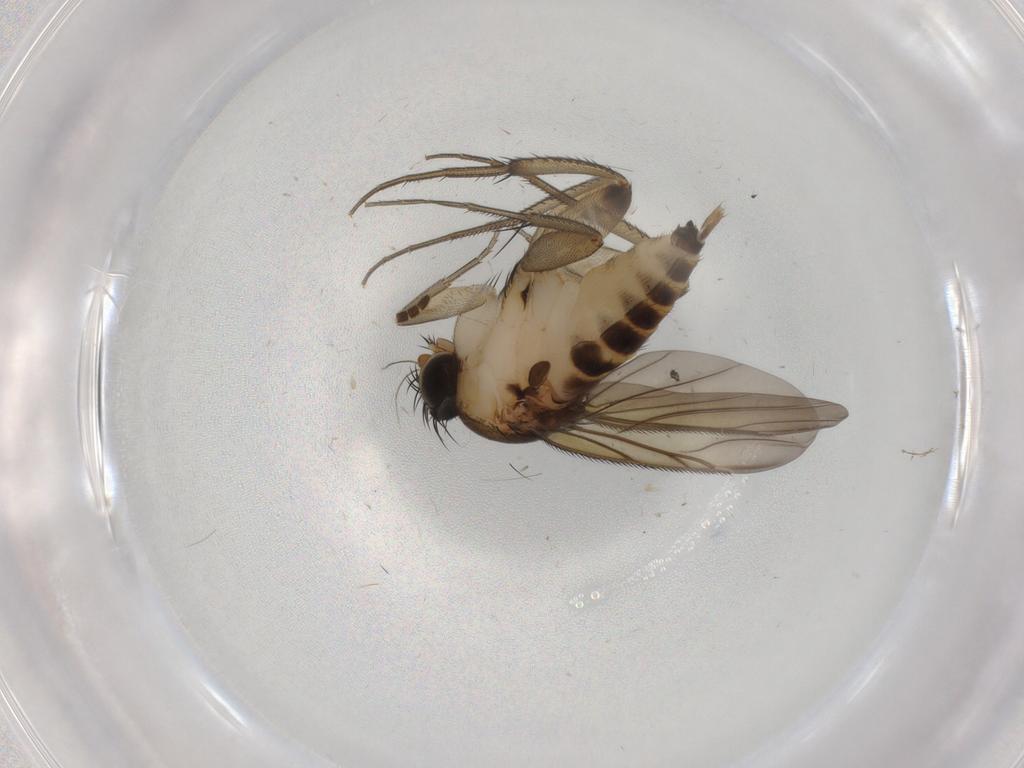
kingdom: Animalia
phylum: Arthropoda
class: Insecta
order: Diptera
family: Phoridae
